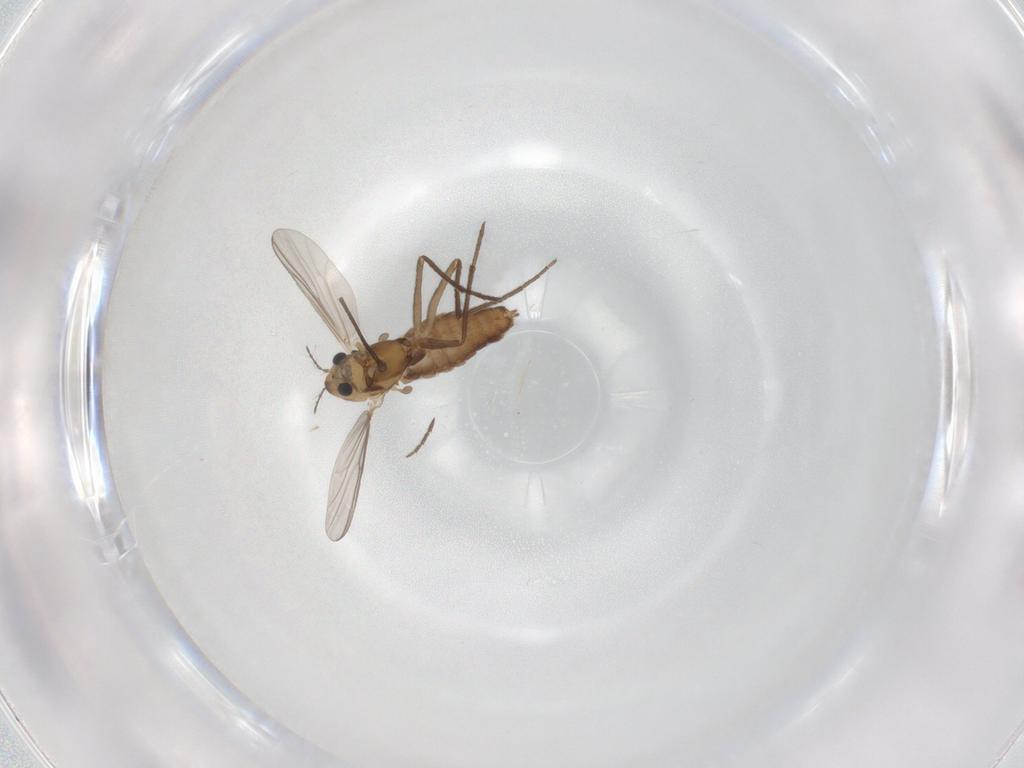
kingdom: Animalia
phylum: Arthropoda
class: Insecta
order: Diptera
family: Chironomidae
